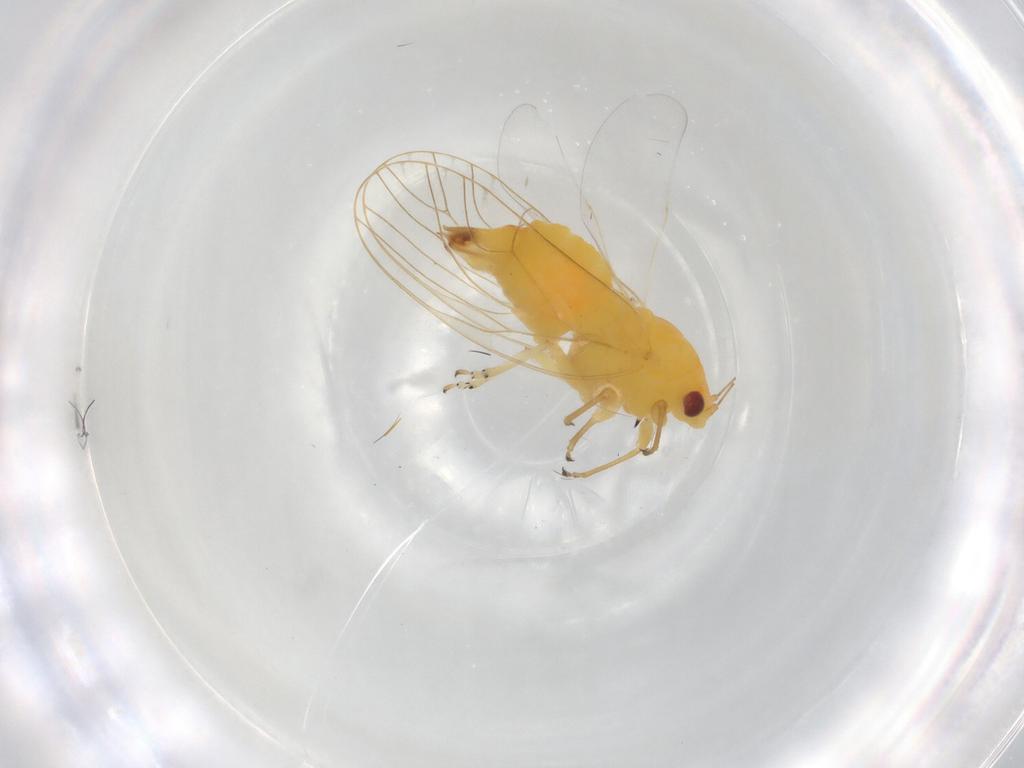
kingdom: Animalia
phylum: Arthropoda
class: Insecta
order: Hemiptera
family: Psyllidae
